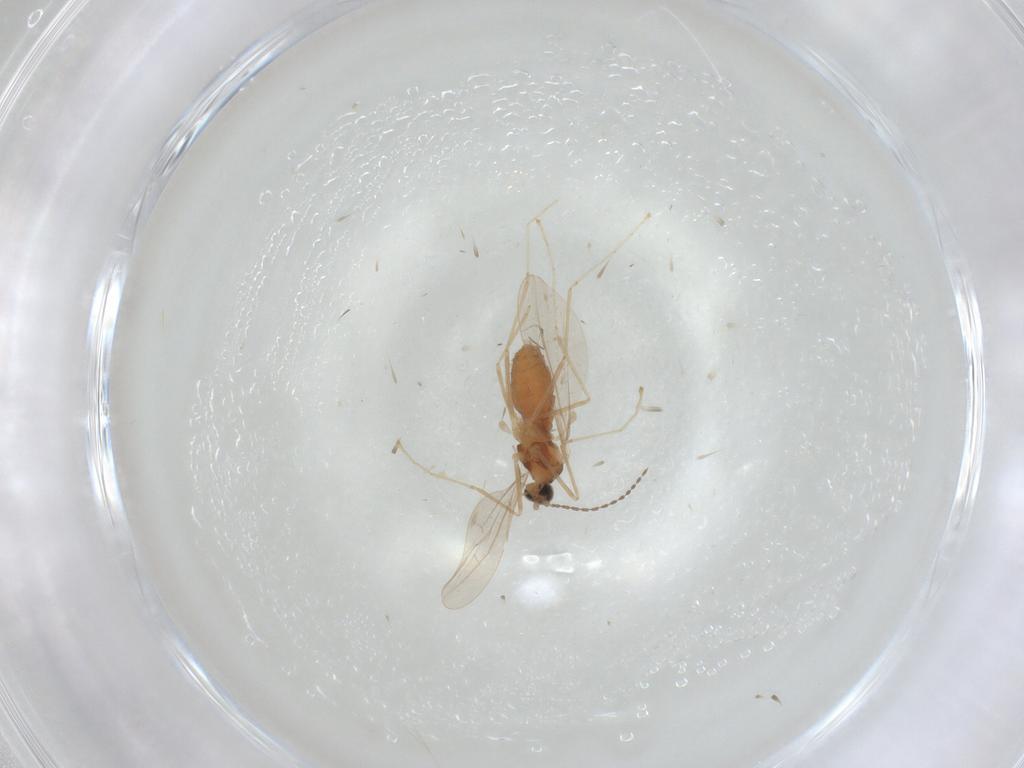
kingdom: Animalia
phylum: Arthropoda
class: Insecta
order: Diptera
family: Cecidomyiidae
